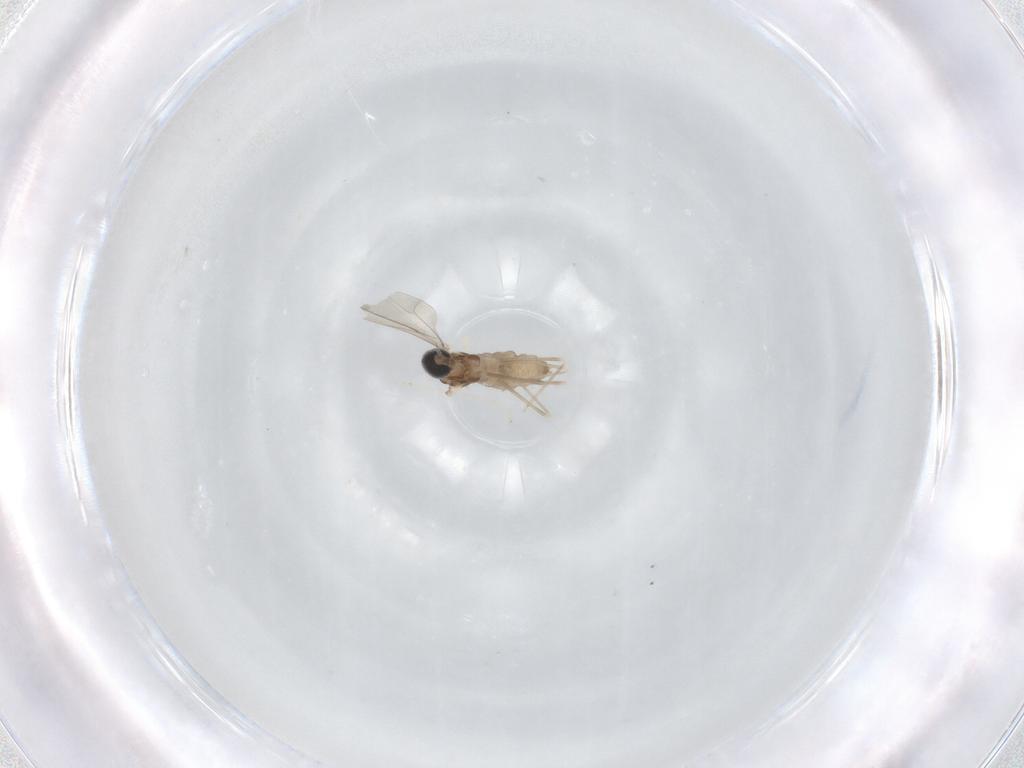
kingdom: Animalia
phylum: Arthropoda
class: Insecta
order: Diptera
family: Cecidomyiidae
